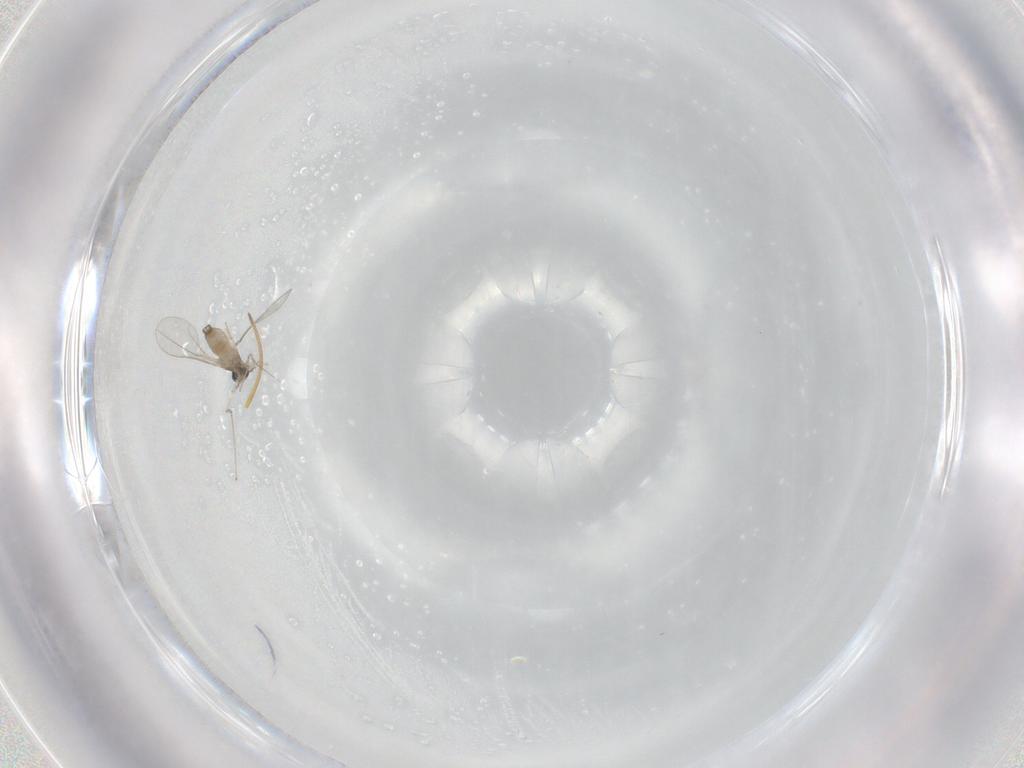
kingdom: Animalia
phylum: Arthropoda
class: Insecta
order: Diptera
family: Cecidomyiidae
